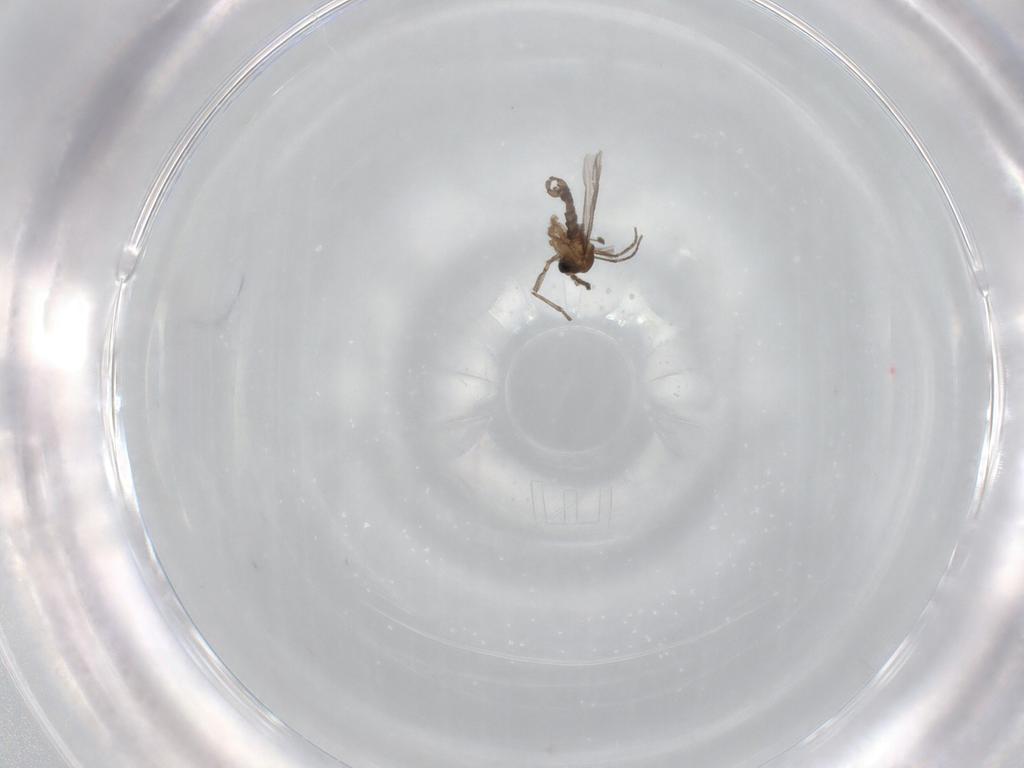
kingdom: Animalia
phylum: Arthropoda
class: Insecta
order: Diptera
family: Sciaridae
